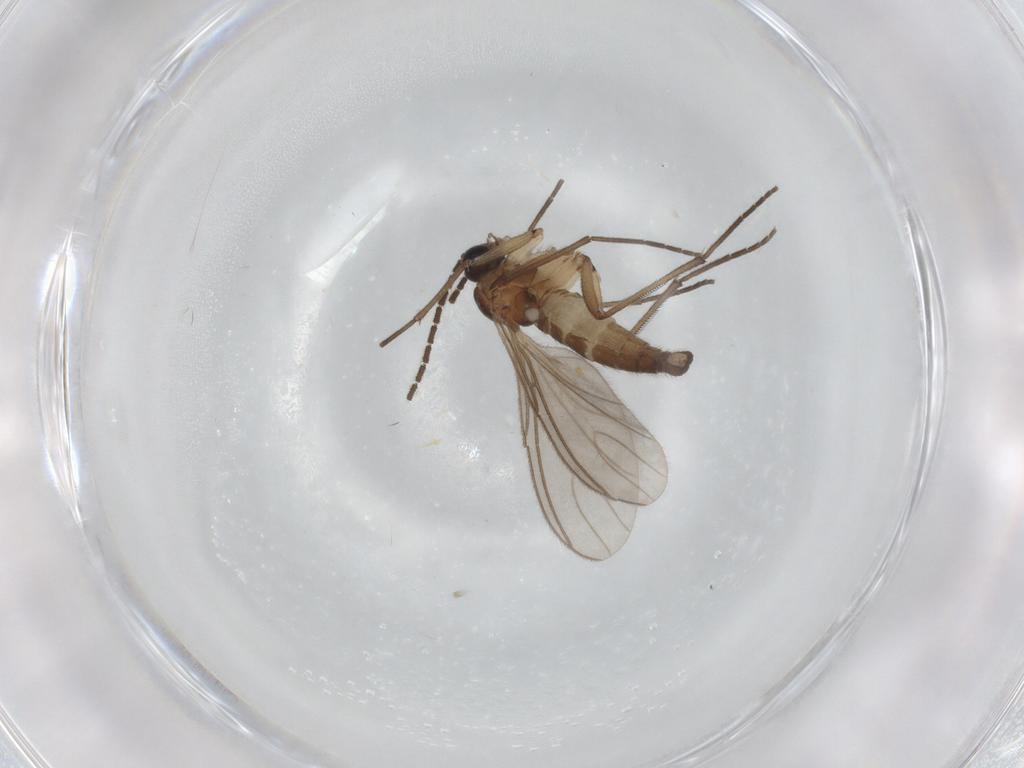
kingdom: Animalia
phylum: Arthropoda
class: Insecta
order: Diptera
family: Sciaridae
